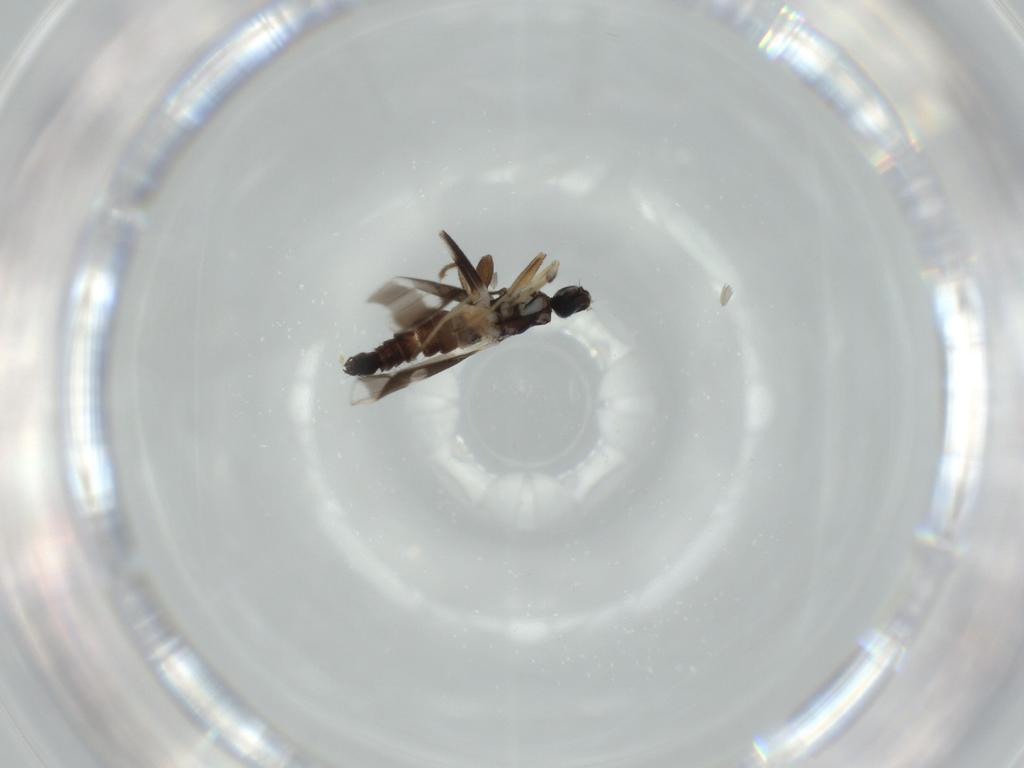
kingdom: Animalia
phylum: Arthropoda
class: Insecta
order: Diptera
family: Hybotidae
